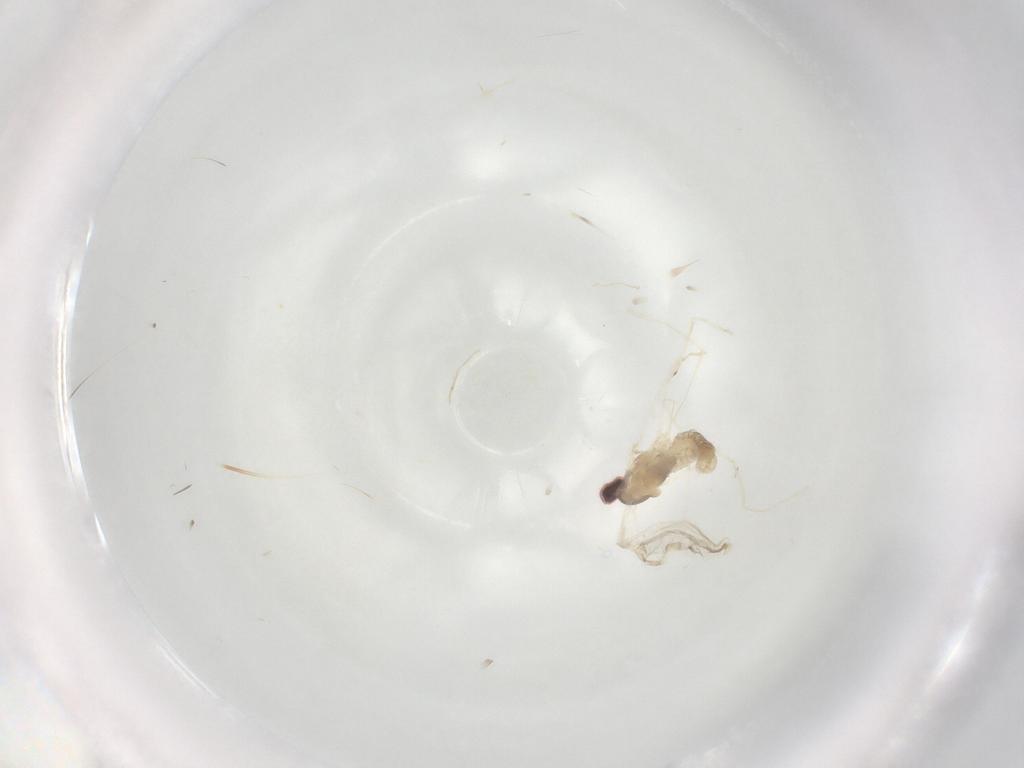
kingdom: Animalia
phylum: Arthropoda
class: Insecta
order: Diptera
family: Cecidomyiidae
